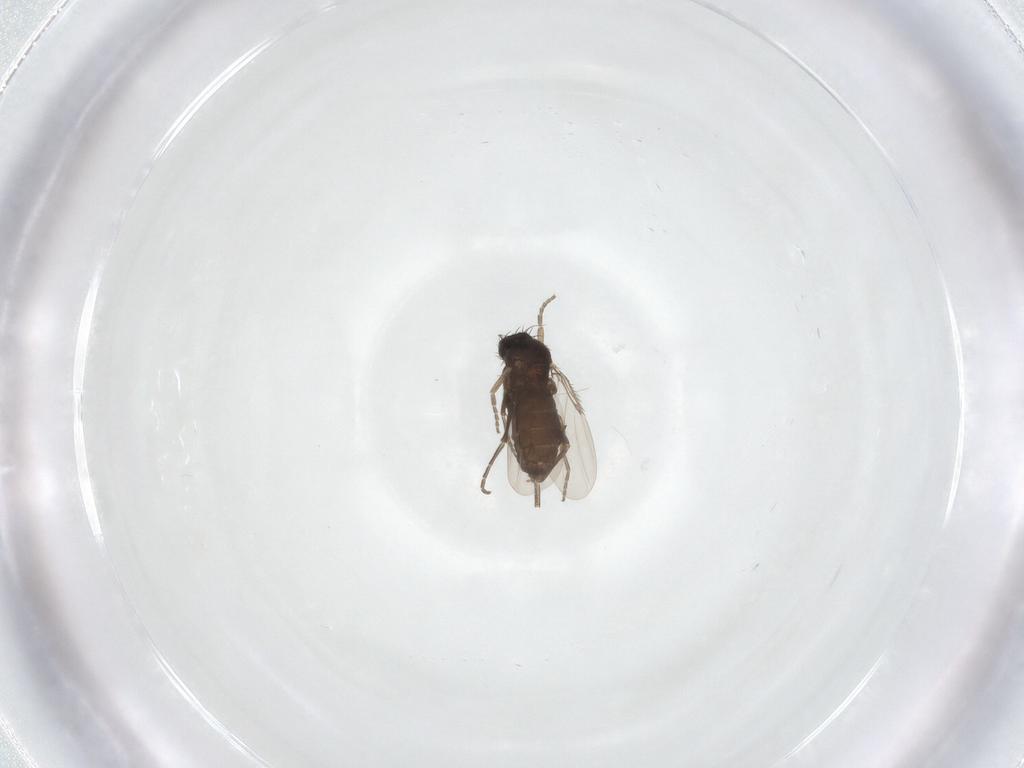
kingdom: Animalia
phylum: Arthropoda
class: Insecta
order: Diptera
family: Phoridae
